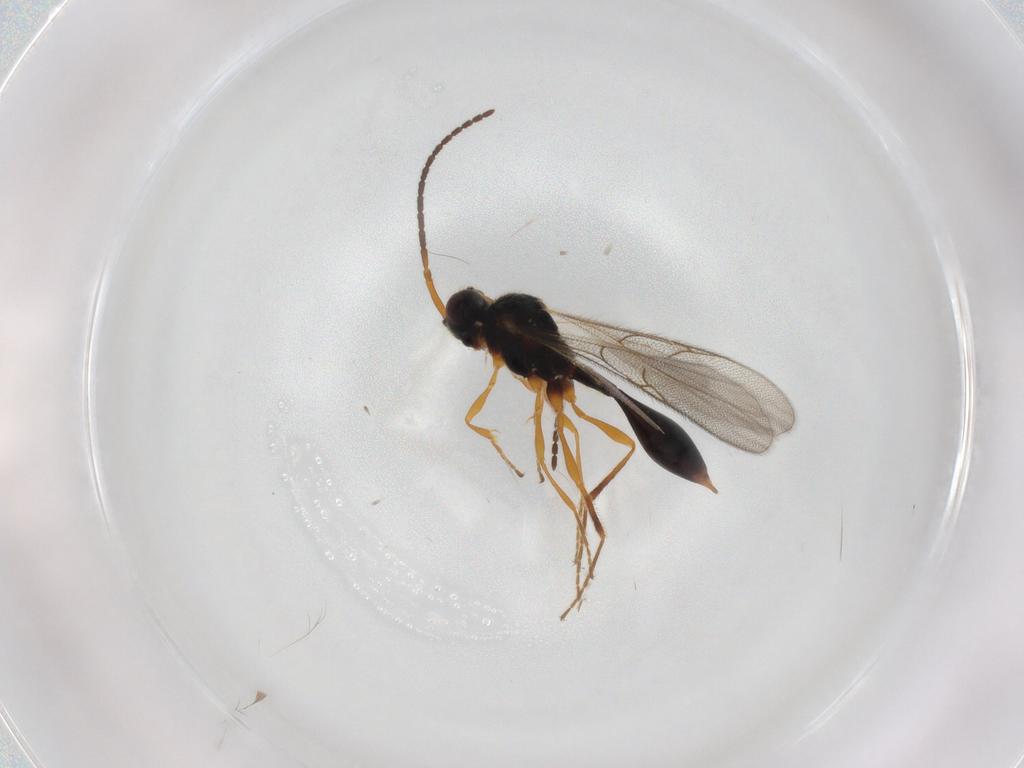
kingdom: Animalia
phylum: Arthropoda
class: Insecta
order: Hymenoptera
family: Mymaridae
